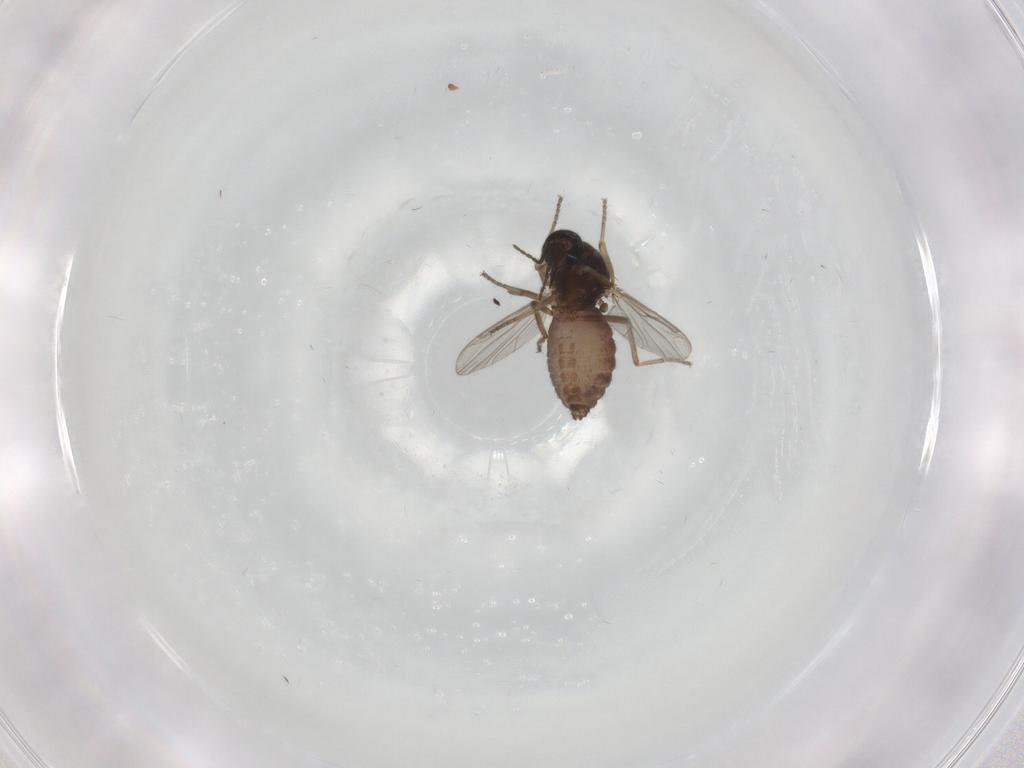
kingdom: Animalia
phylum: Arthropoda
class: Insecta
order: Diptera
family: Ceratopogonidae
